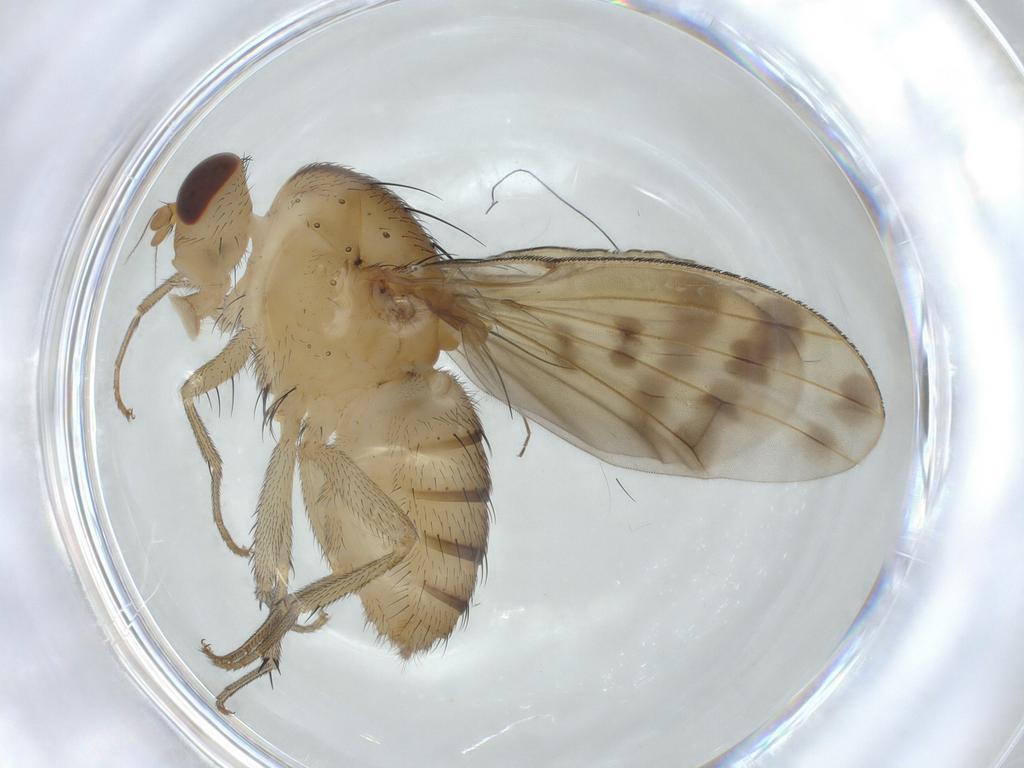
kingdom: Animalia
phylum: Arthropoda
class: Insecta
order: Diptera
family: Lauxaniidae
